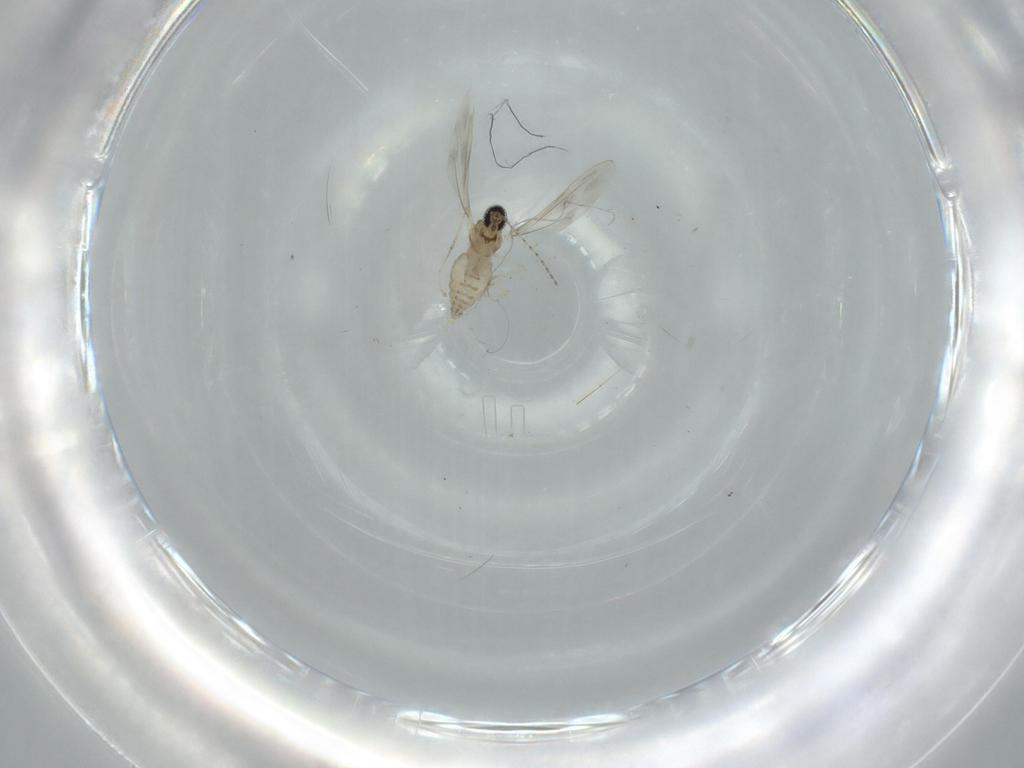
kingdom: Animalia
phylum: Arthropoda
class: Insecta
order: Diptera
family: Cecidomyiidae
